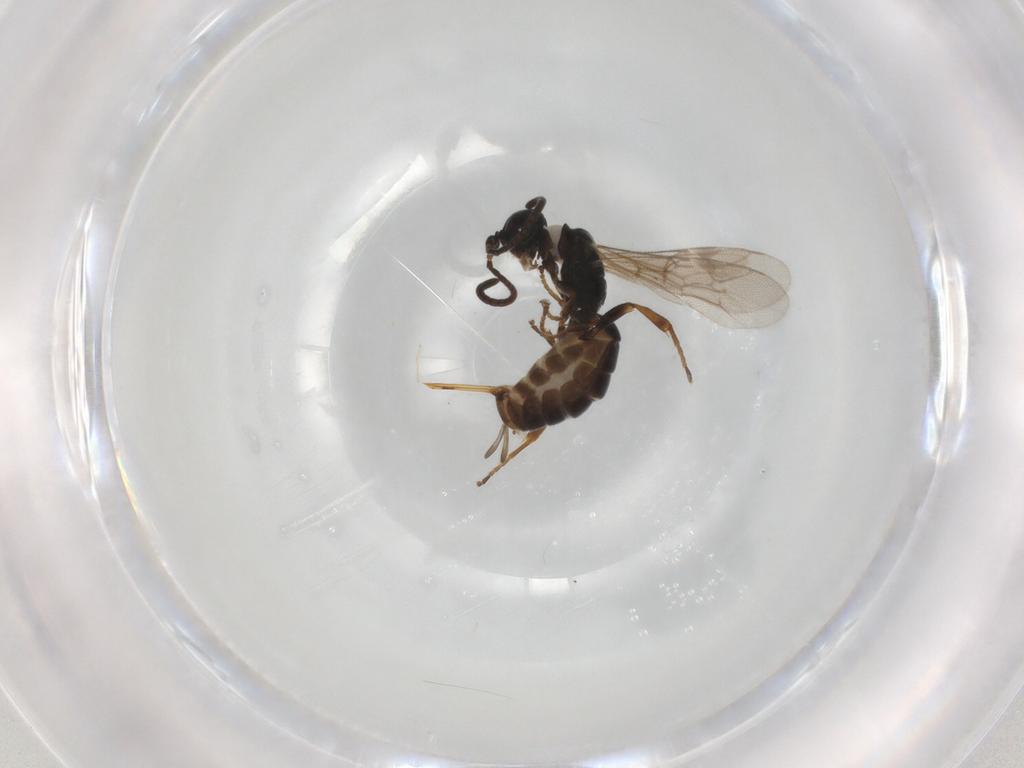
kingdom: Animalia
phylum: Arthropoda
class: Insecta
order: Hymenoptera
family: Ichneumonidae
